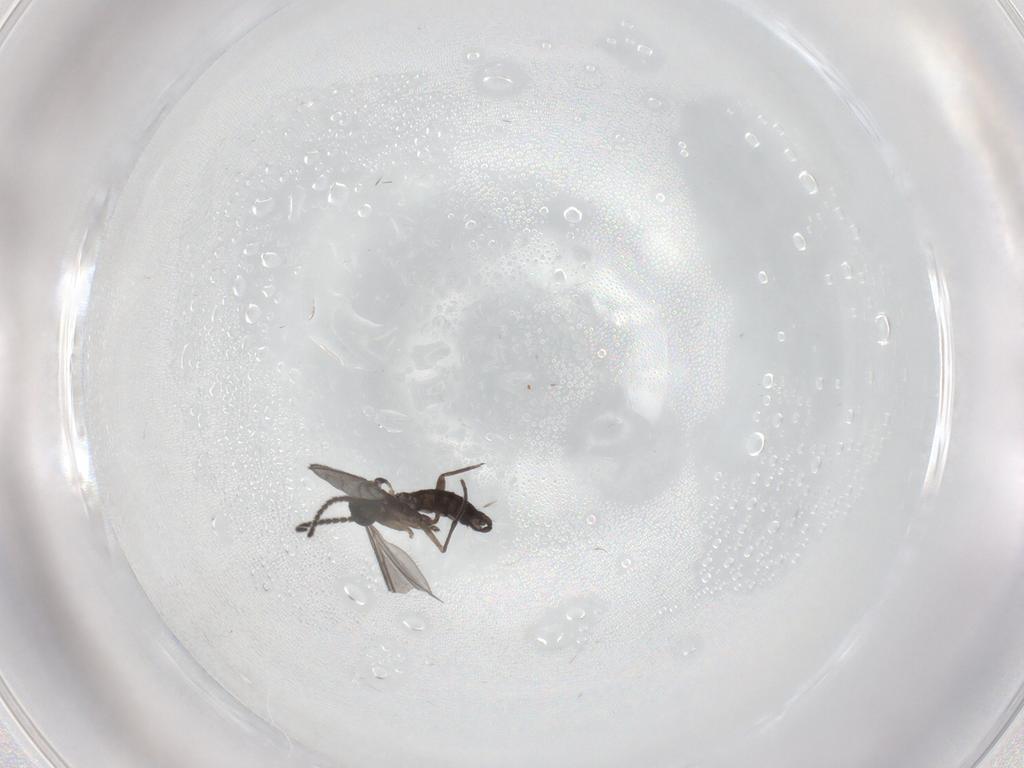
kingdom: Animalia
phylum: Arthropoda
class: Insecta
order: Diptera
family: Sciaridae
